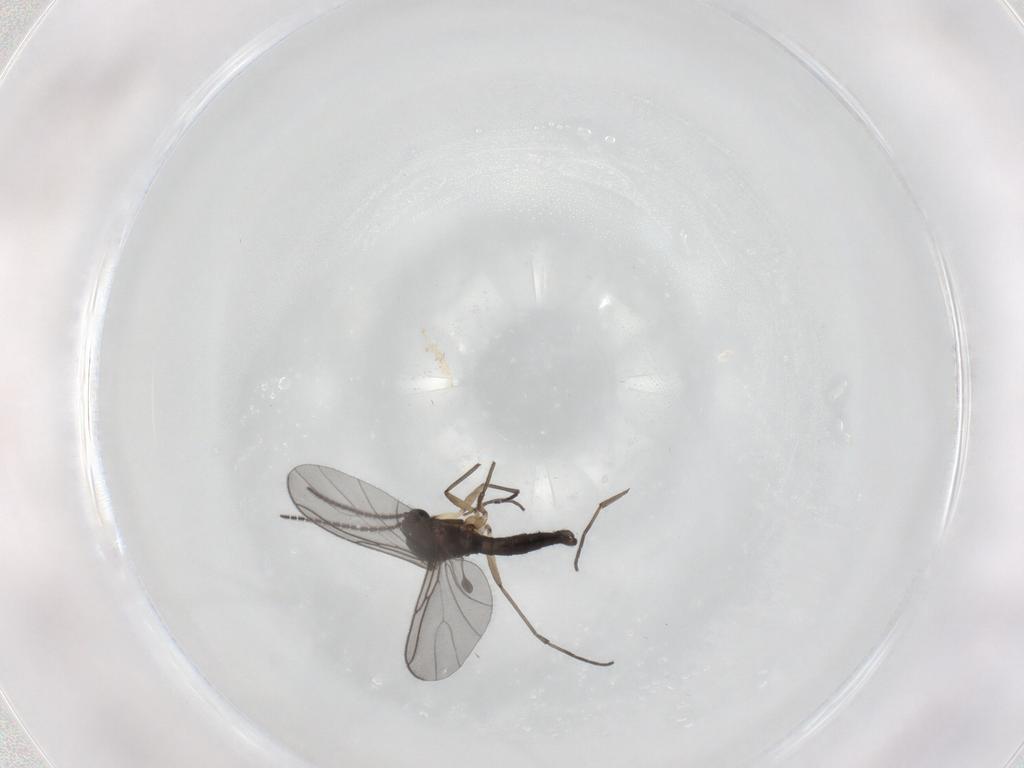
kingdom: Animalia
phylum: Arthropoda
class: Insecta
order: Diptera
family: Sciaridae
